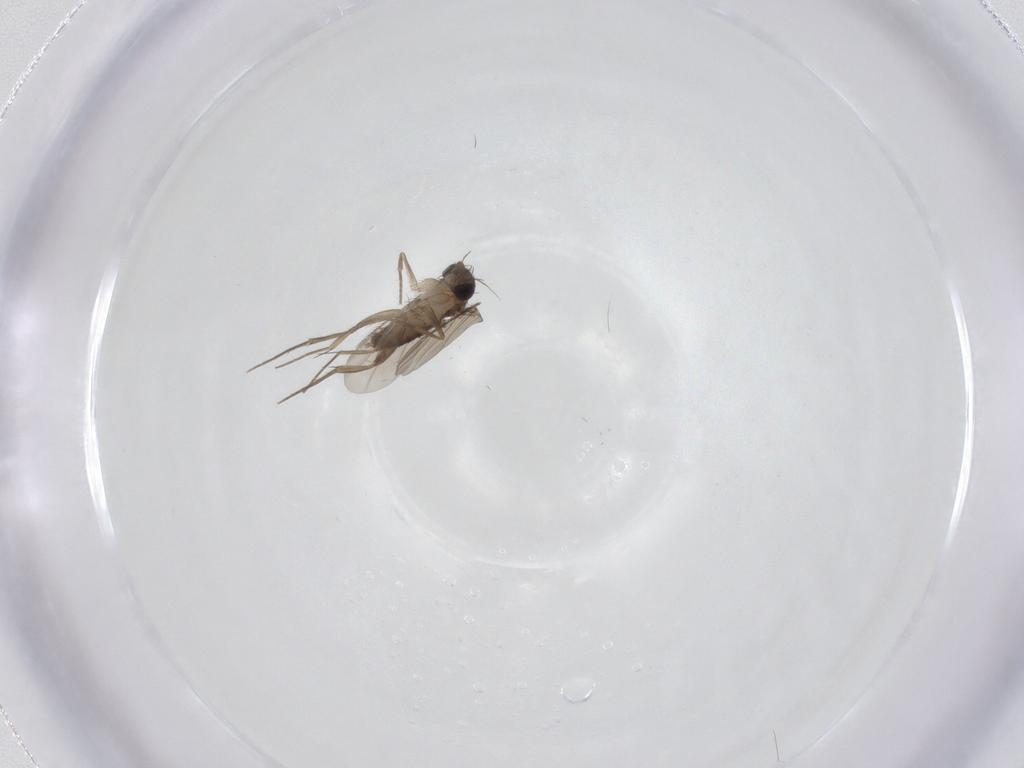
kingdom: Animalia
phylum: Arthropoda
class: Insecta
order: Diptera
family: Phoridae
